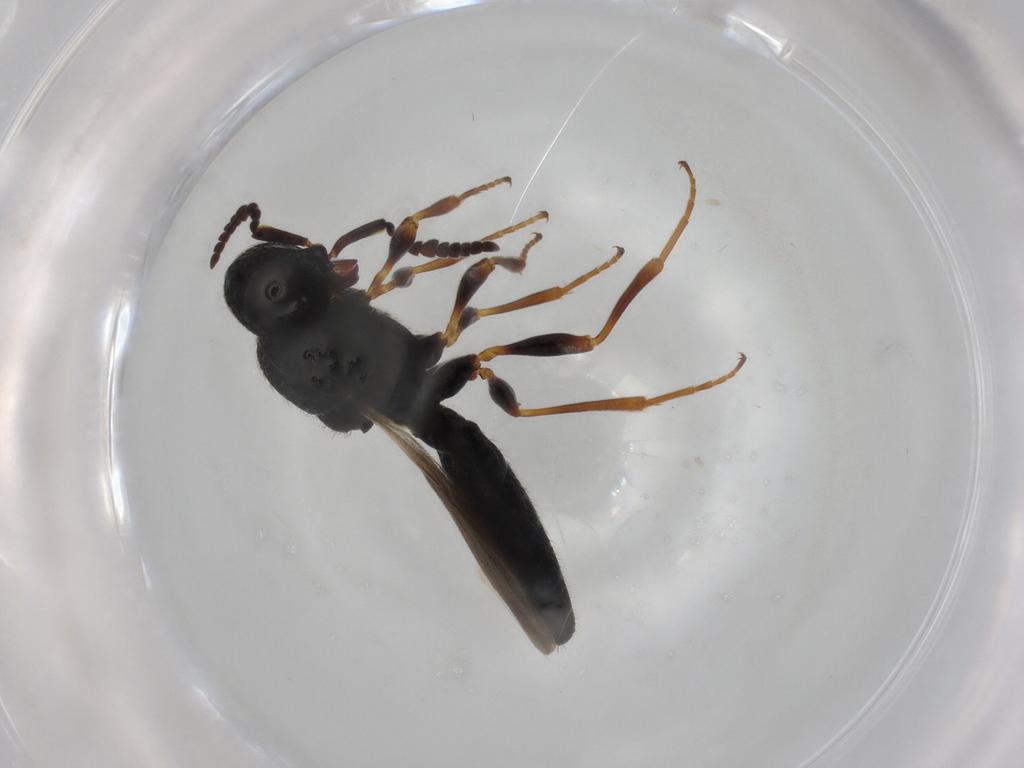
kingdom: Animalia
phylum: Arthropoda
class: Insecta
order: Hymenoptera
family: Scelionidae
